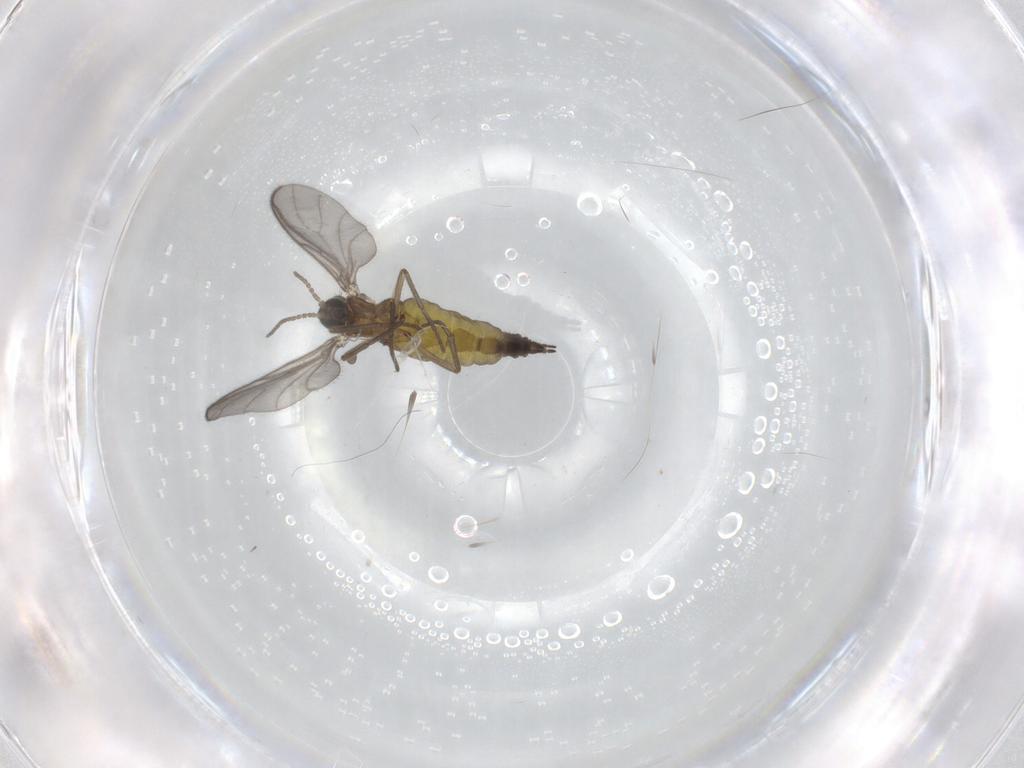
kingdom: Animalia
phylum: Arthropoda
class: Insecta
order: Diptera
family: Sciaridae
